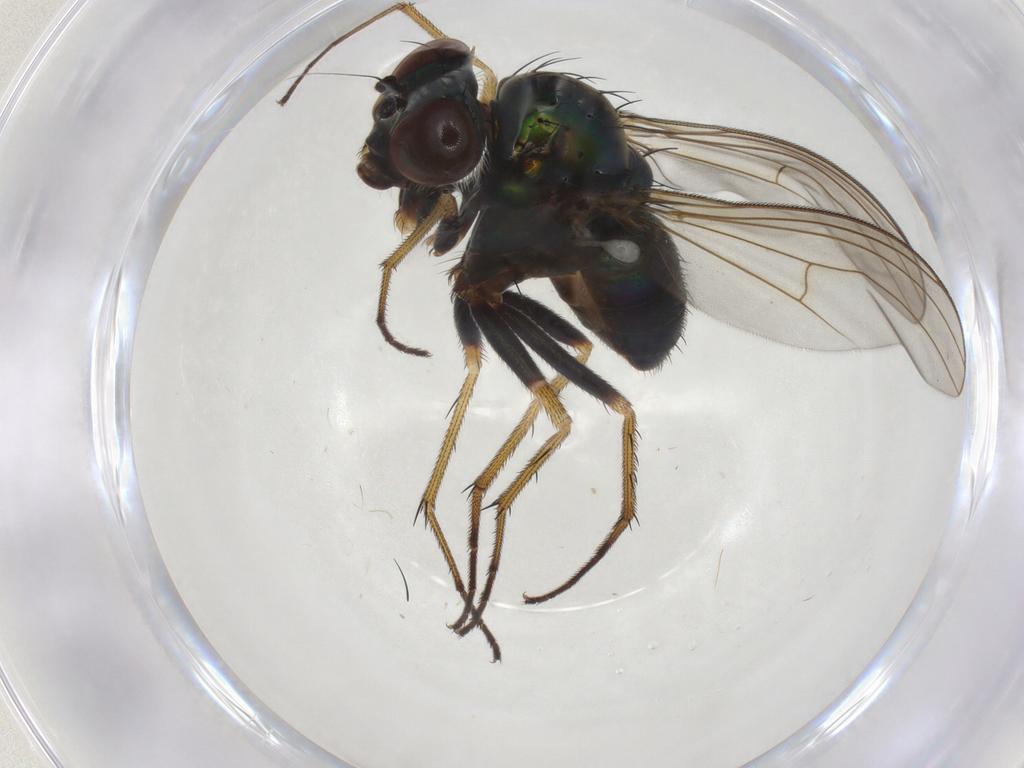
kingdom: Animalia
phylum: Arthropoda
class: Insecta
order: Diptera
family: Dolichopodidae
